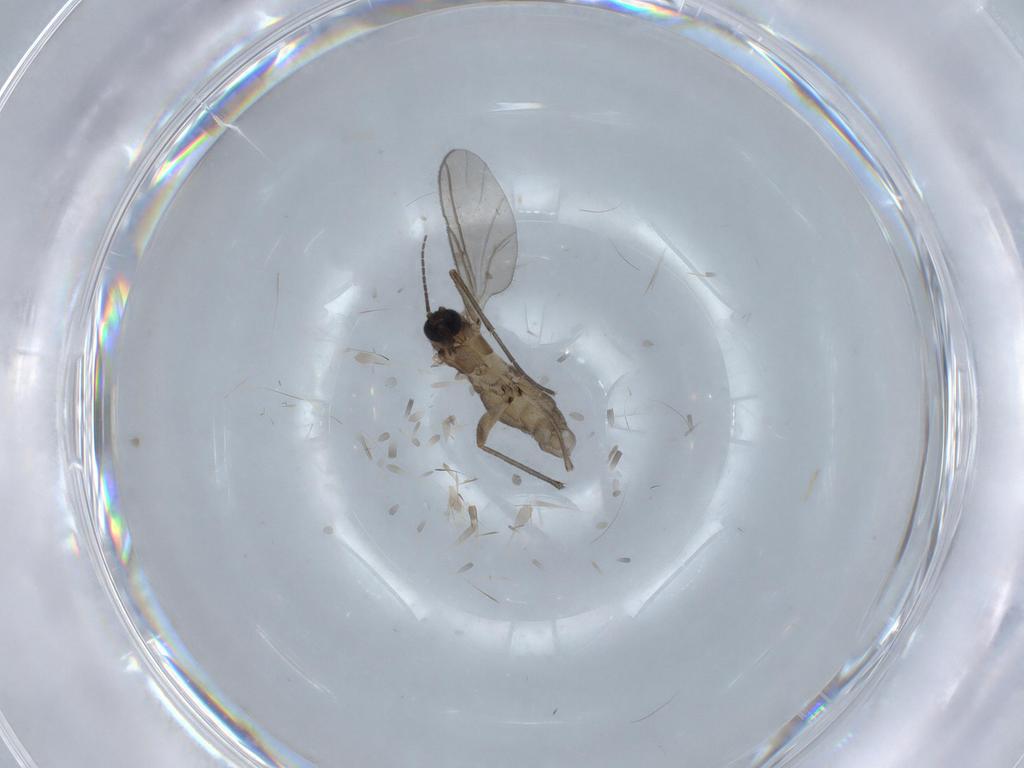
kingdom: Animalia
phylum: Arthropoda
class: Insecta
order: Diptera
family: Sciaridae
